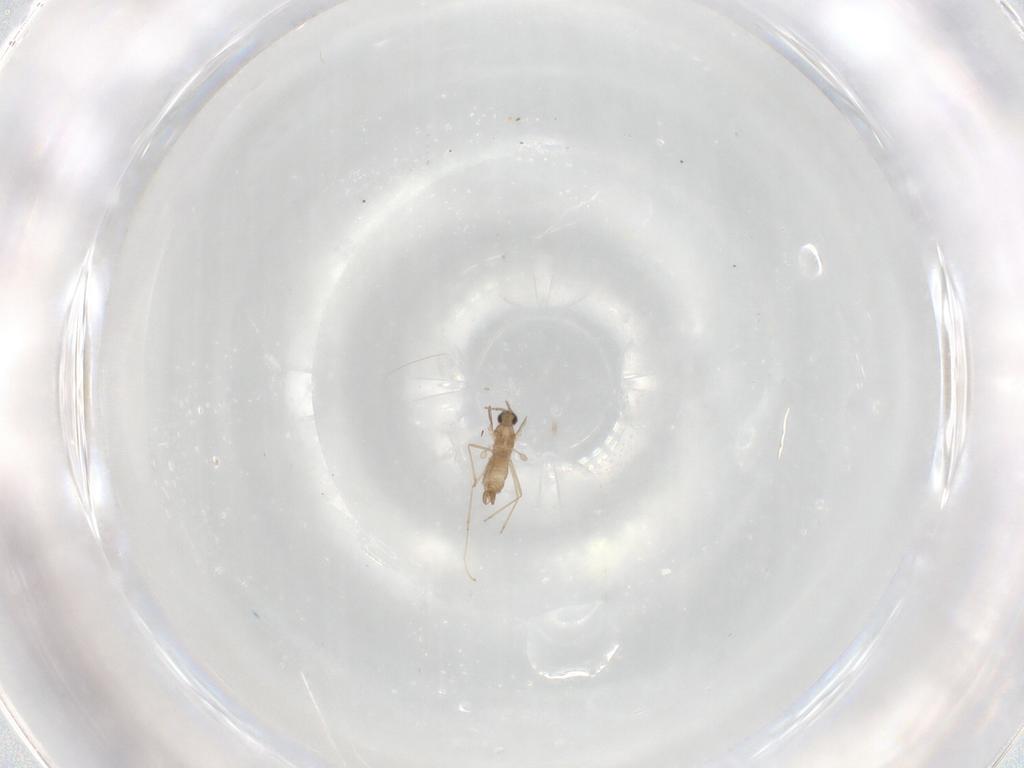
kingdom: Animalia
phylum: Arthropoda
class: Insecta
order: Diptera
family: Cecidomyiidae
